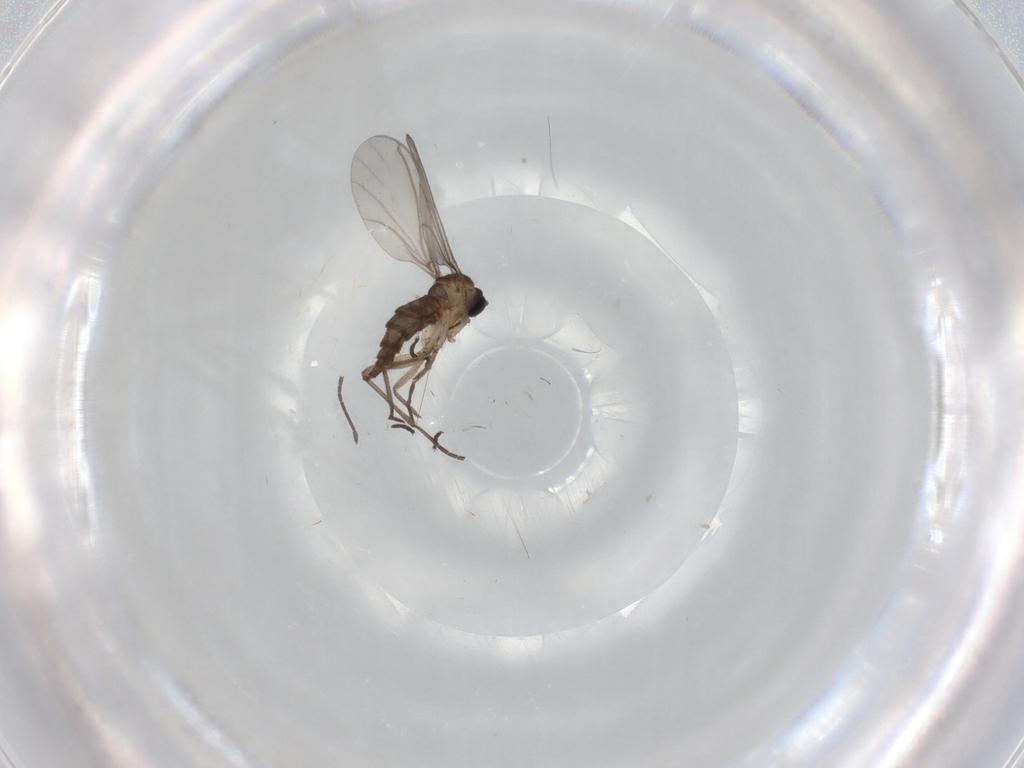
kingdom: Animalia
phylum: Arthropoda
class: Insecta
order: Diptera
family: Sciaridae
